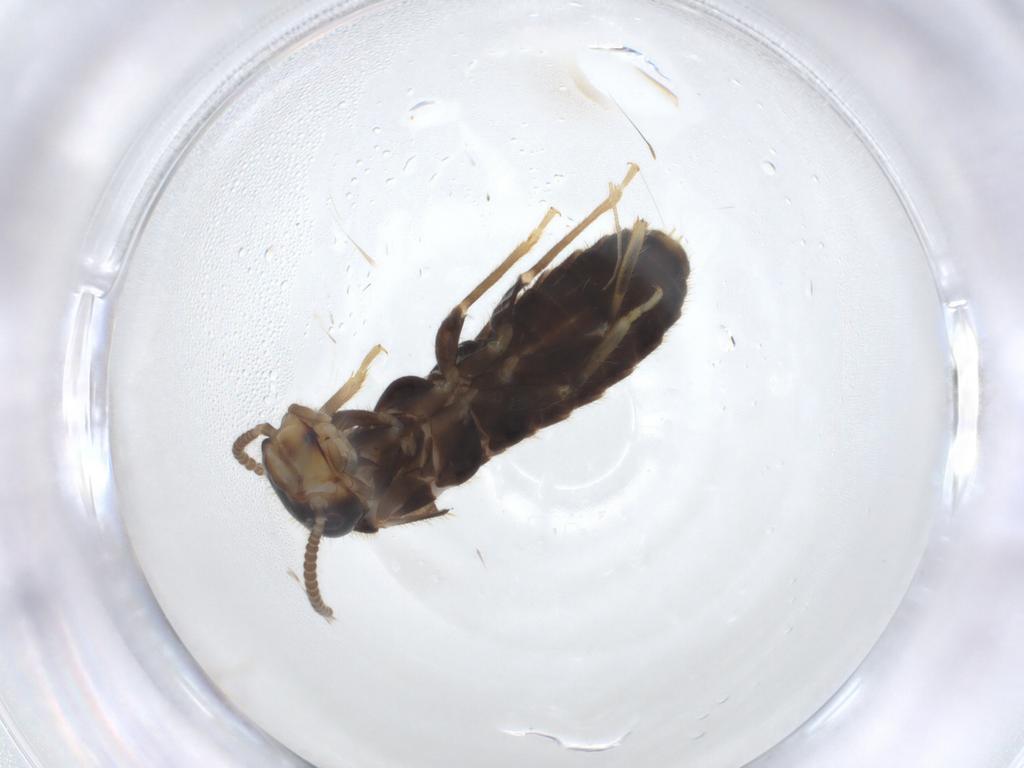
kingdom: Animalia
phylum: Arthropoda
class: Insecta
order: Blattodea
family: Rhinotermitidae
